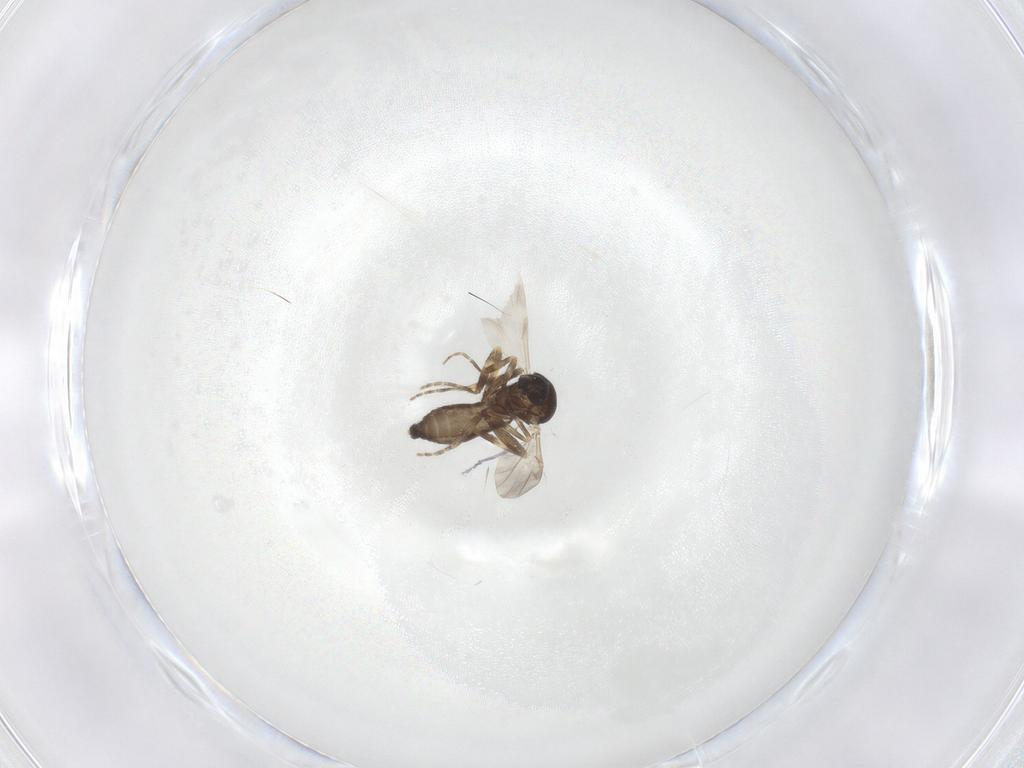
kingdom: Animalia
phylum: Arthropoda
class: Insecta
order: Diptera
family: Ceratopogonidae
